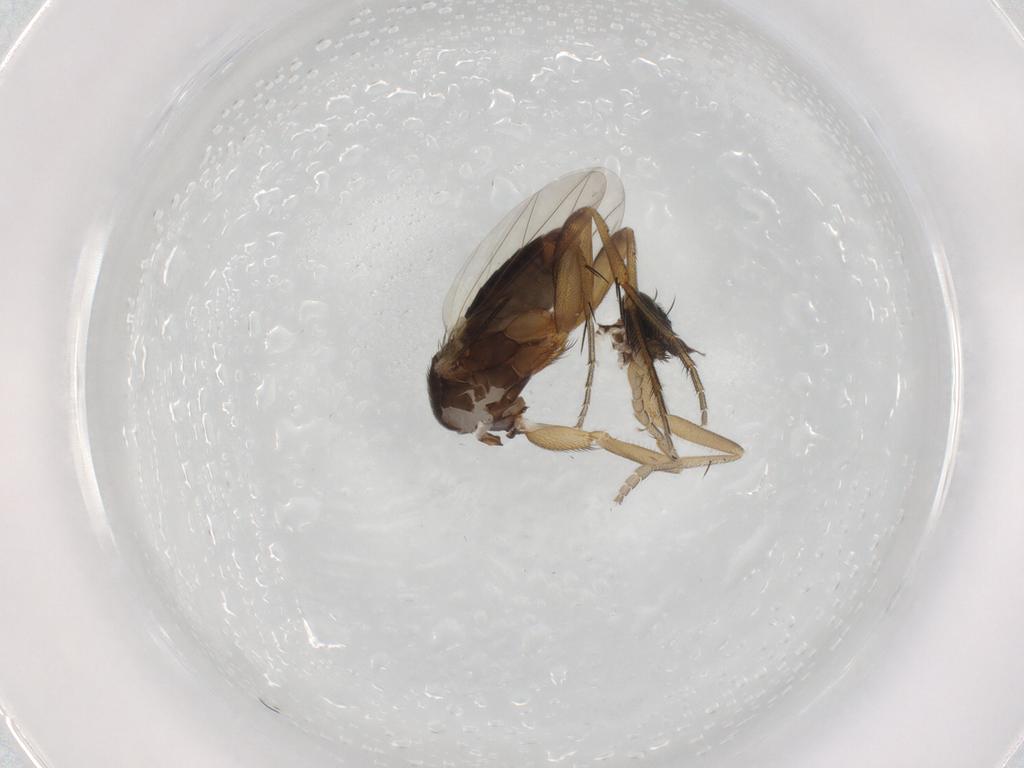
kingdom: Animalia
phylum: Arthropoda
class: Insecta
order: Diptera
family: Phoridae
